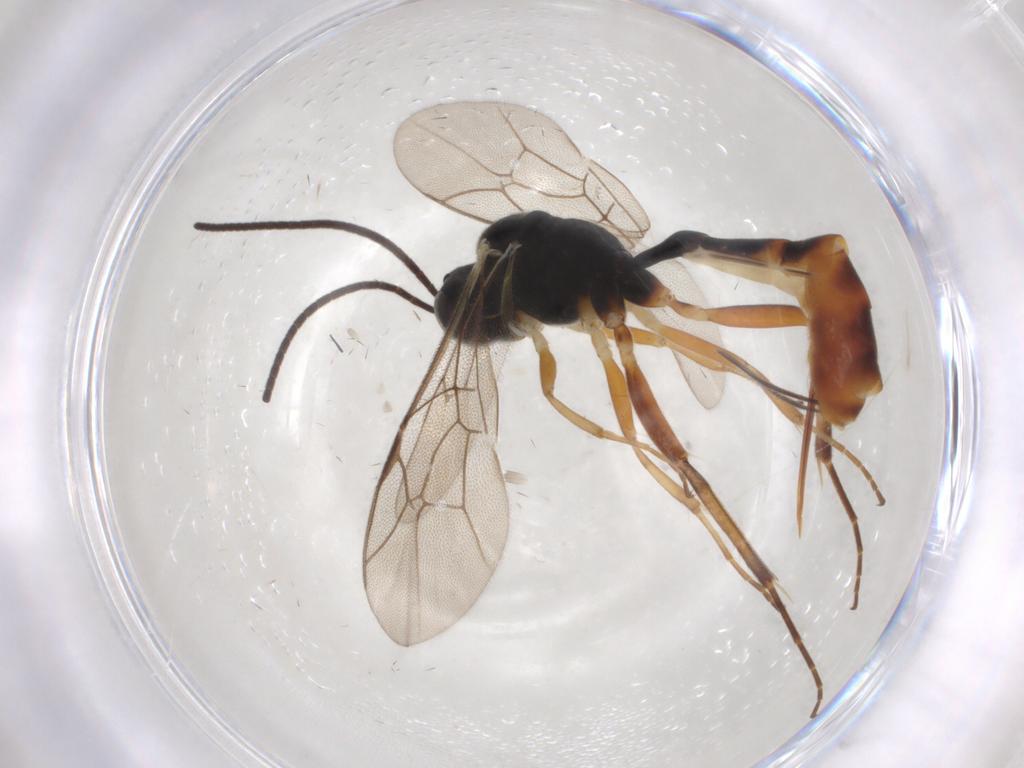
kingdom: Animalia
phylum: Arthropoda
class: Insecta
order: Hymenoptera
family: Ichneumonidae
